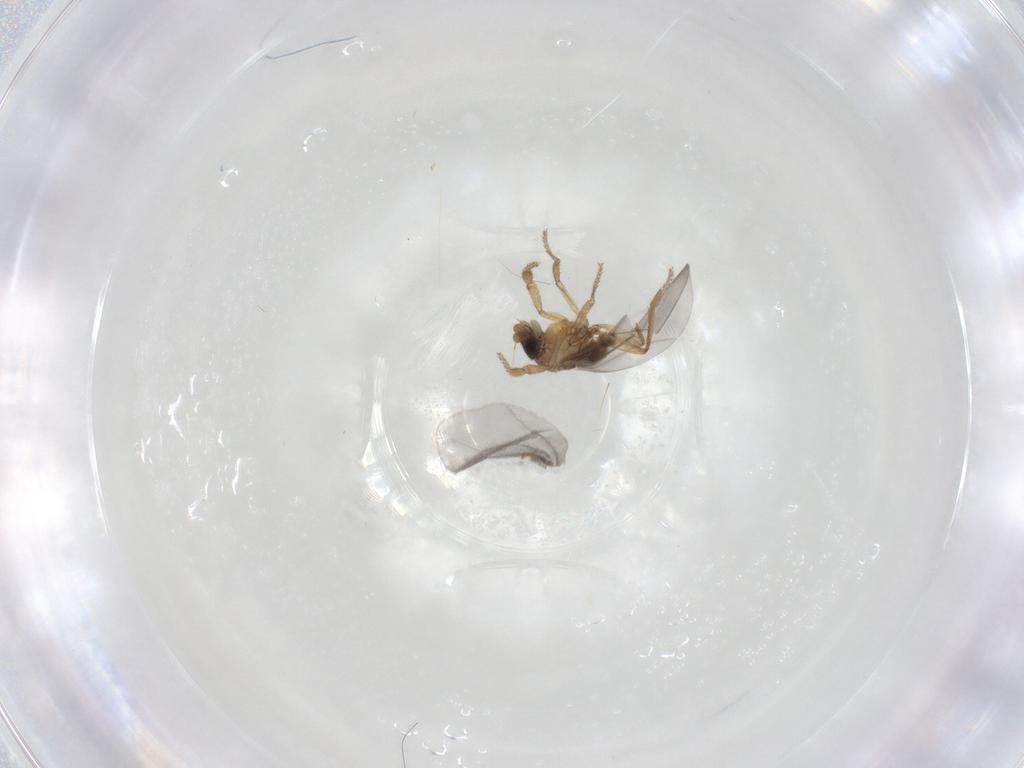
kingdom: Animalia
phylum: Arthropoda
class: Insecta
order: Diptera
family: Phoridae
